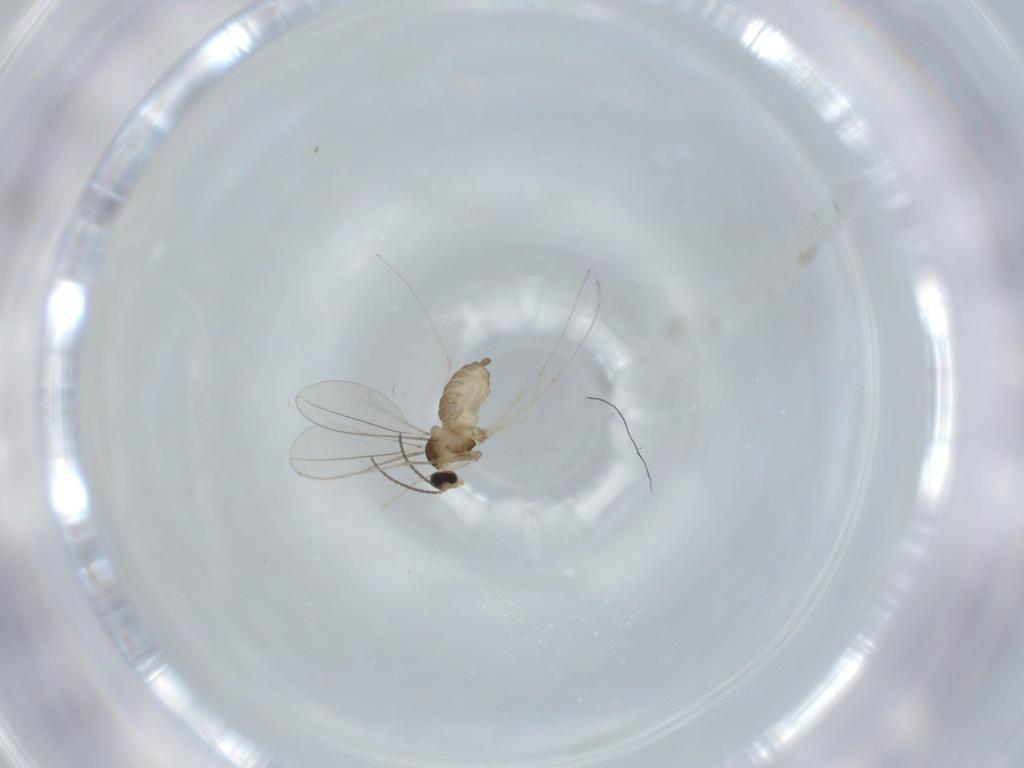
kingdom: Animalia
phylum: Arthropoda
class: Insecta
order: Diptera
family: Cecidomyiidae
